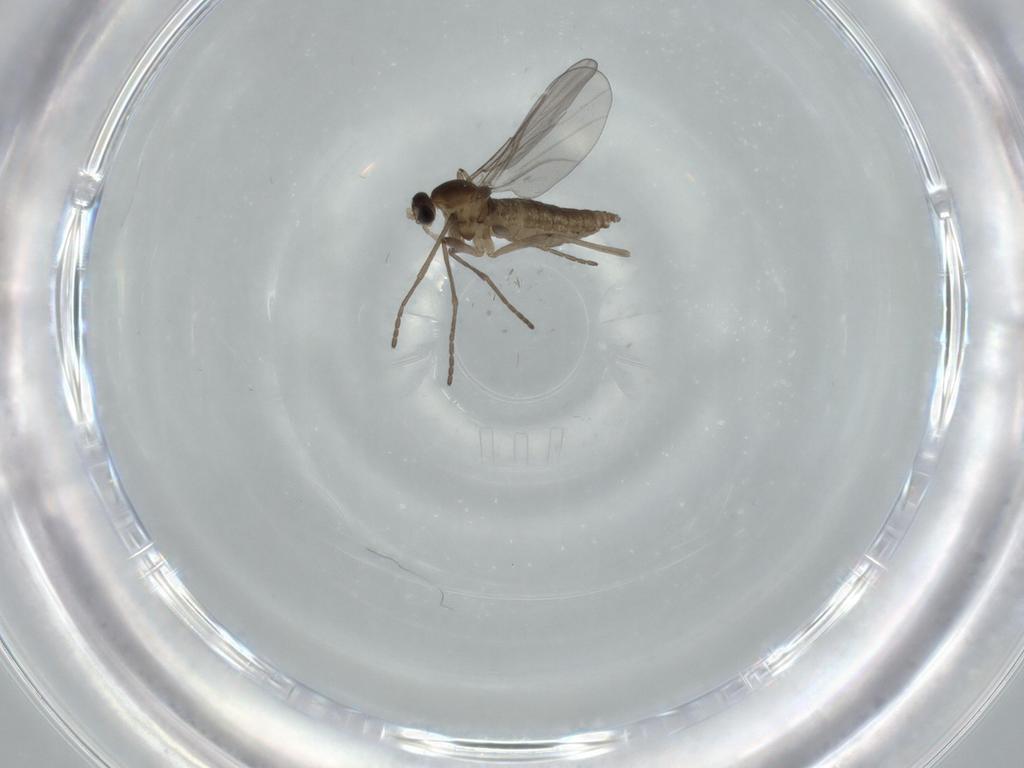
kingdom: Animalia
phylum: Arthropoda
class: Insecta
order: Diptera
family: Cecidomyiidae
